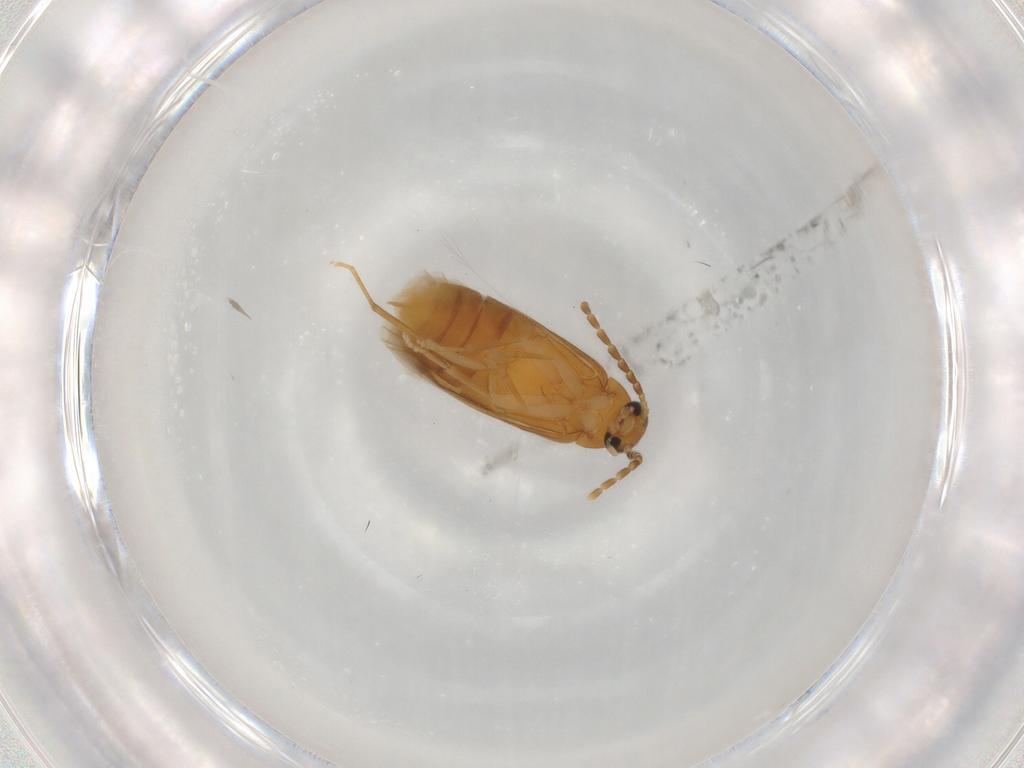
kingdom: Animalia
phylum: Arthropoda
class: Insecta
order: Coleoptera
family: Scraptiidae
